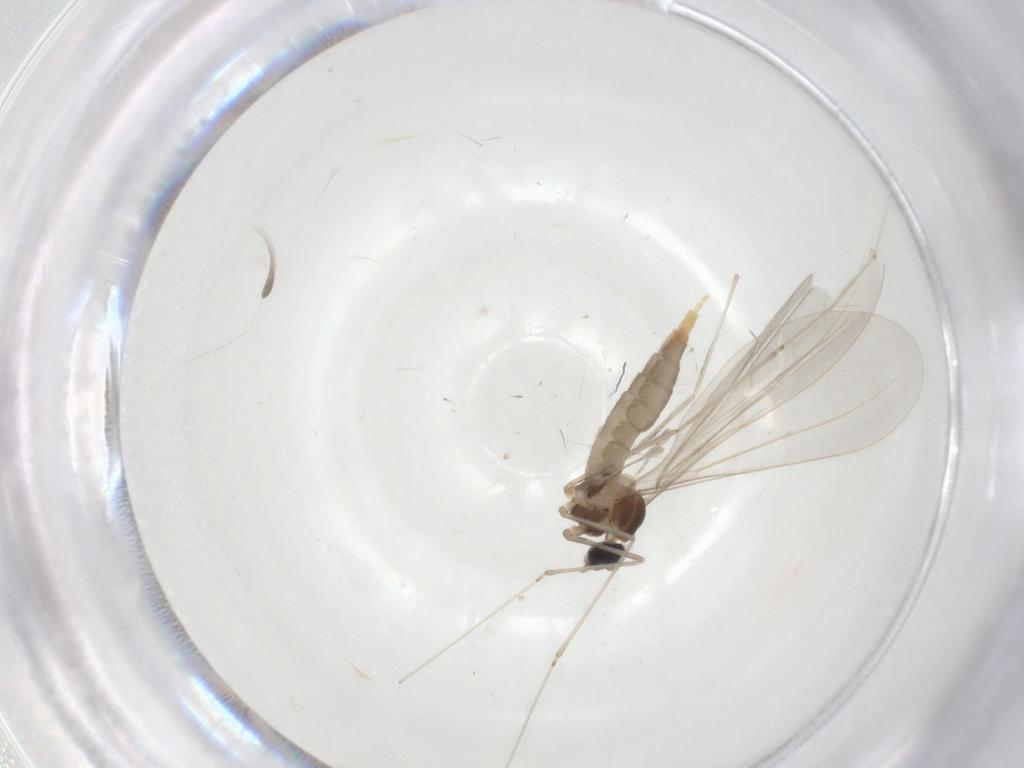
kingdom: Animalia
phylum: Arthropoda
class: Insecta
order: Diptera
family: Cecidomyiidae
